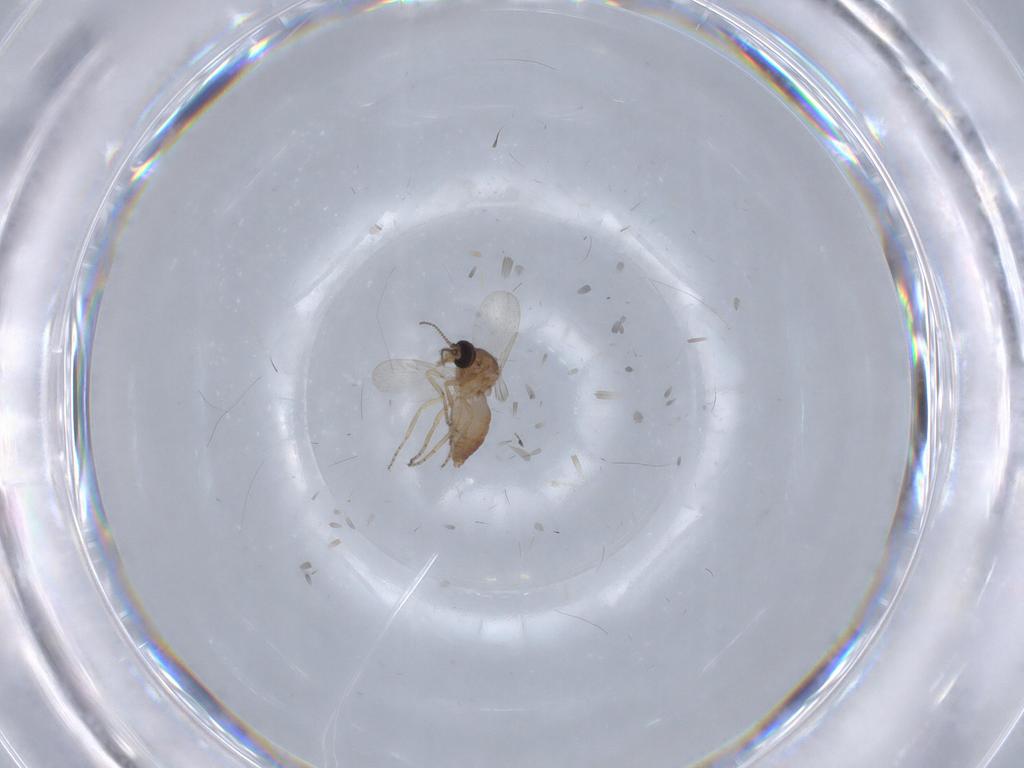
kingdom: Animalia
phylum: Arthropoda
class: Insecta
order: Diptera
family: Ceratopogonidae
